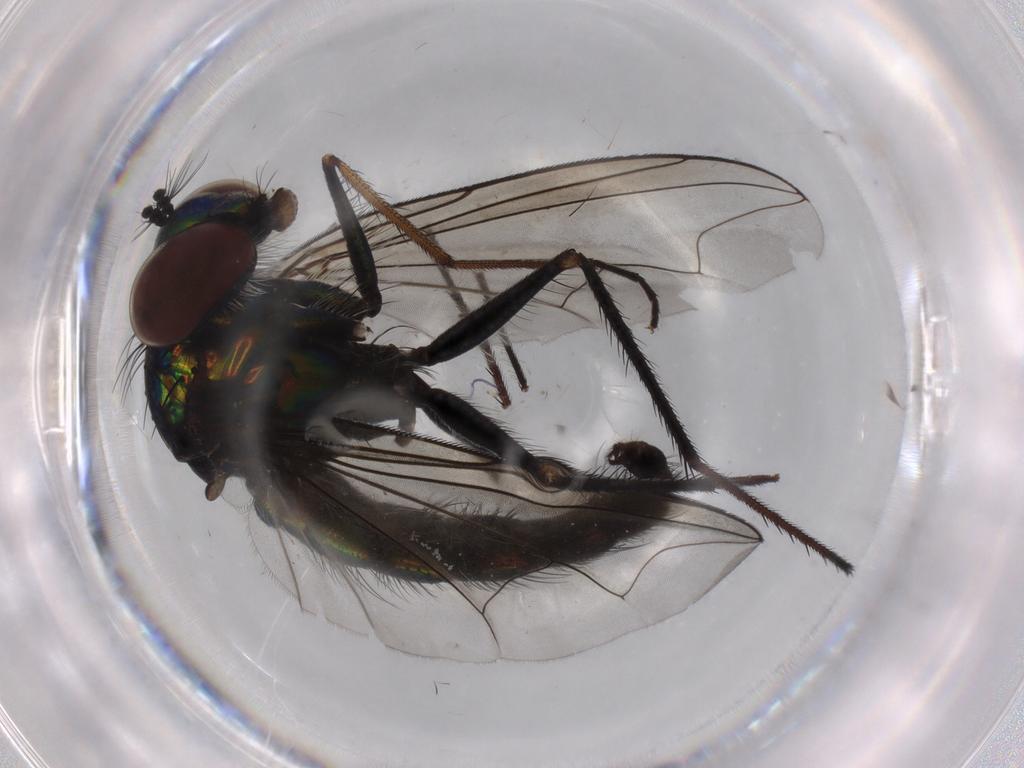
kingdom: Animalia
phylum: Arthropoda
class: Insecta
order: Diptera
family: Dolichopodidae
